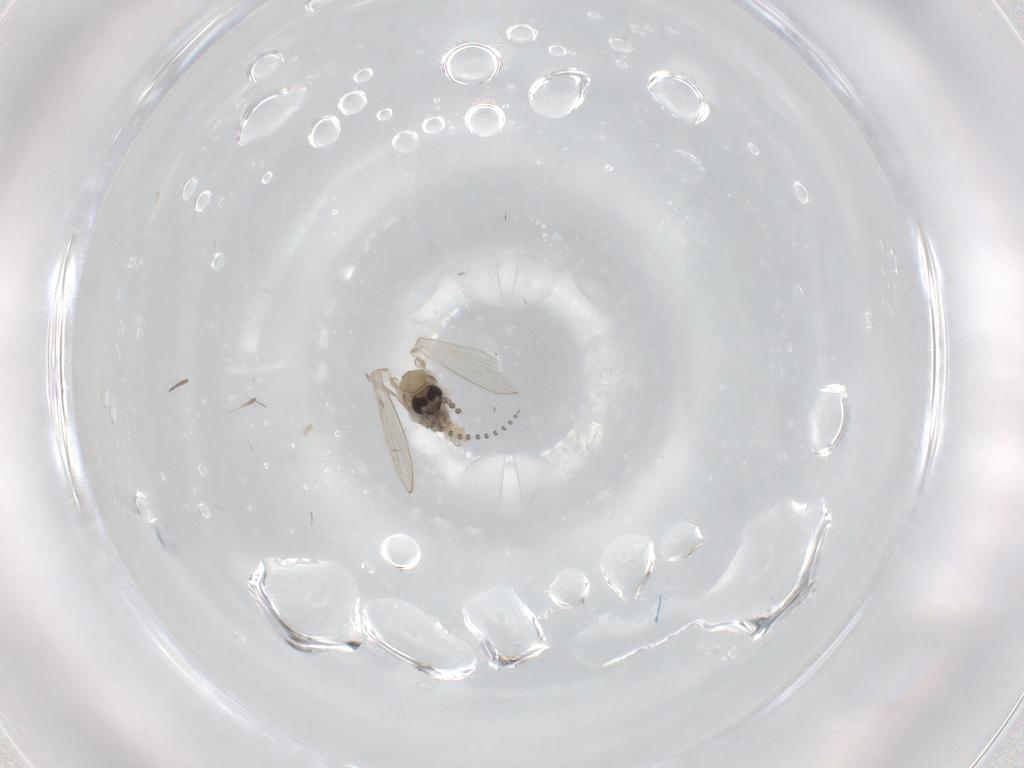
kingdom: Animalia
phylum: Arthropoda
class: Insecta
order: Diptera
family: Psychodidae
